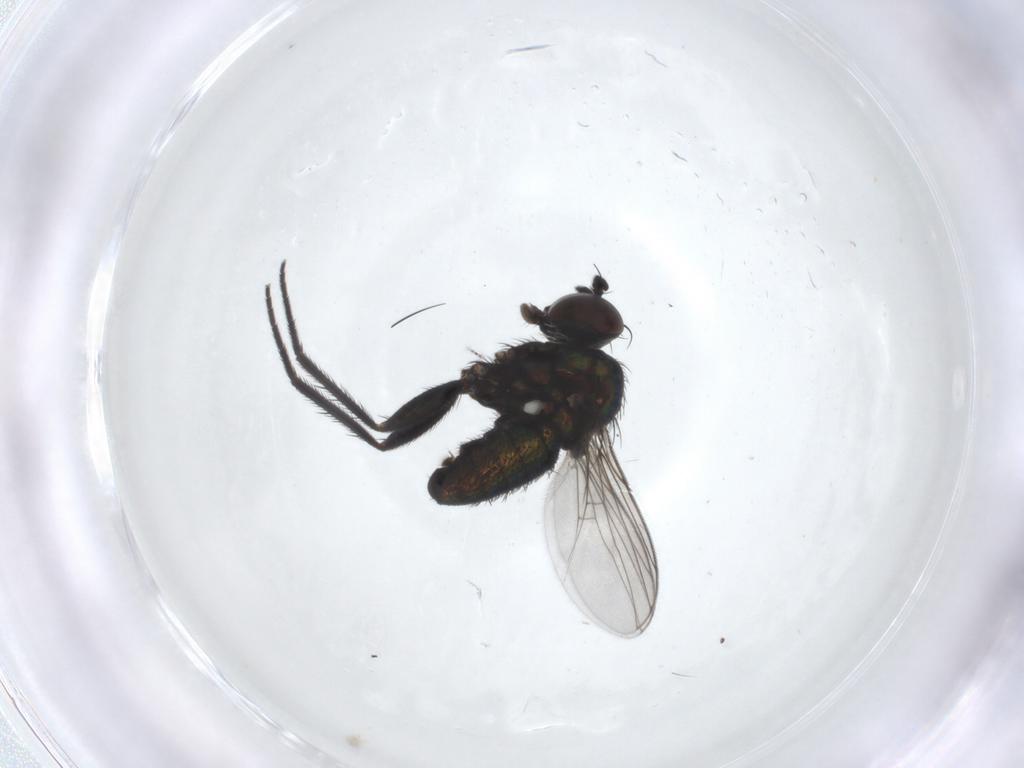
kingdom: Animalia
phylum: Arthropoda
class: Insecta
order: Diptera
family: Dolichopodidae
